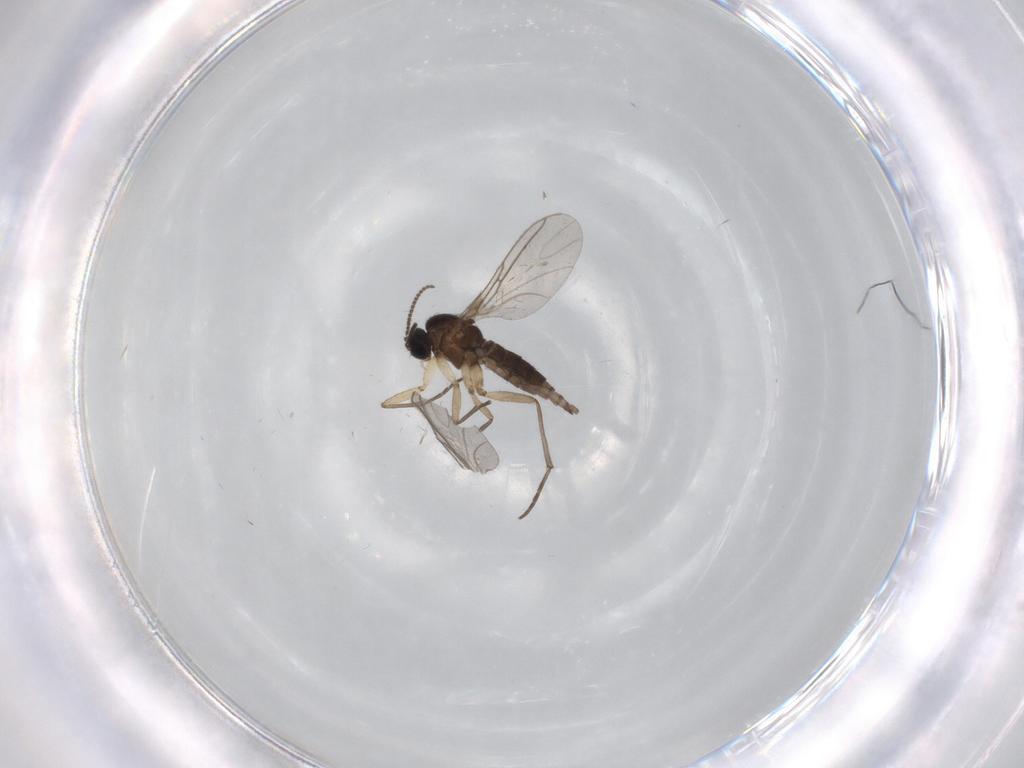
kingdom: Animalia
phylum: Arthropoda
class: Insecta
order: Diptera
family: Sciaridae
